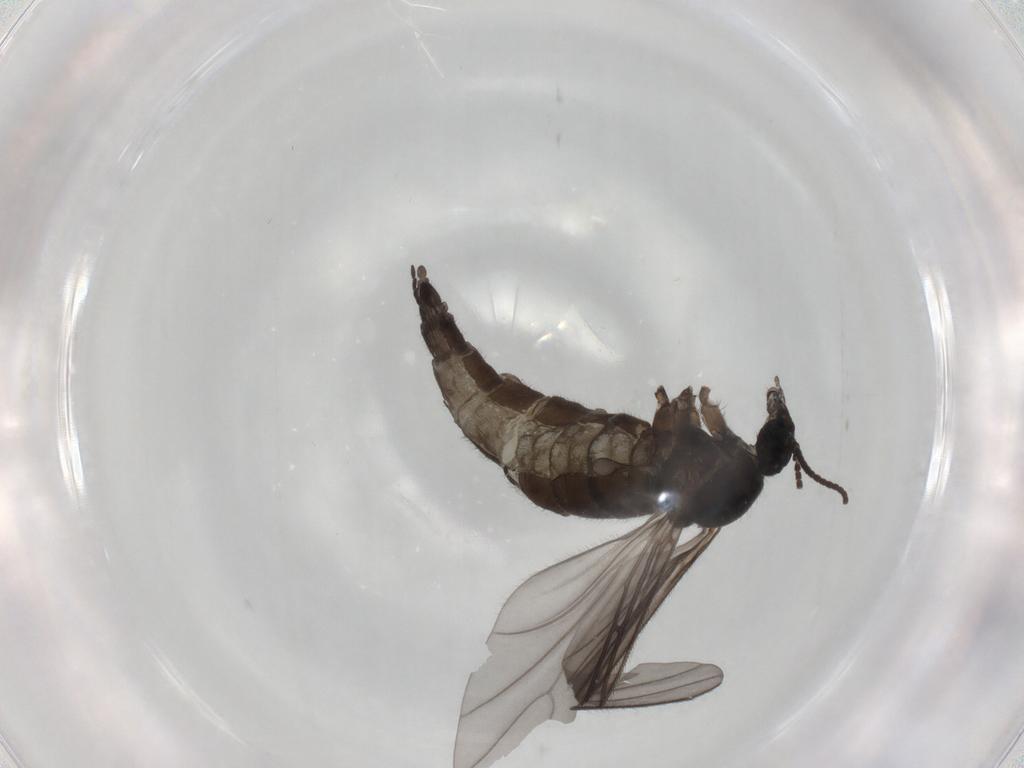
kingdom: Animalia
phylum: Arthropoda
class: Insecta
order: Diptera
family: Sciaridae
